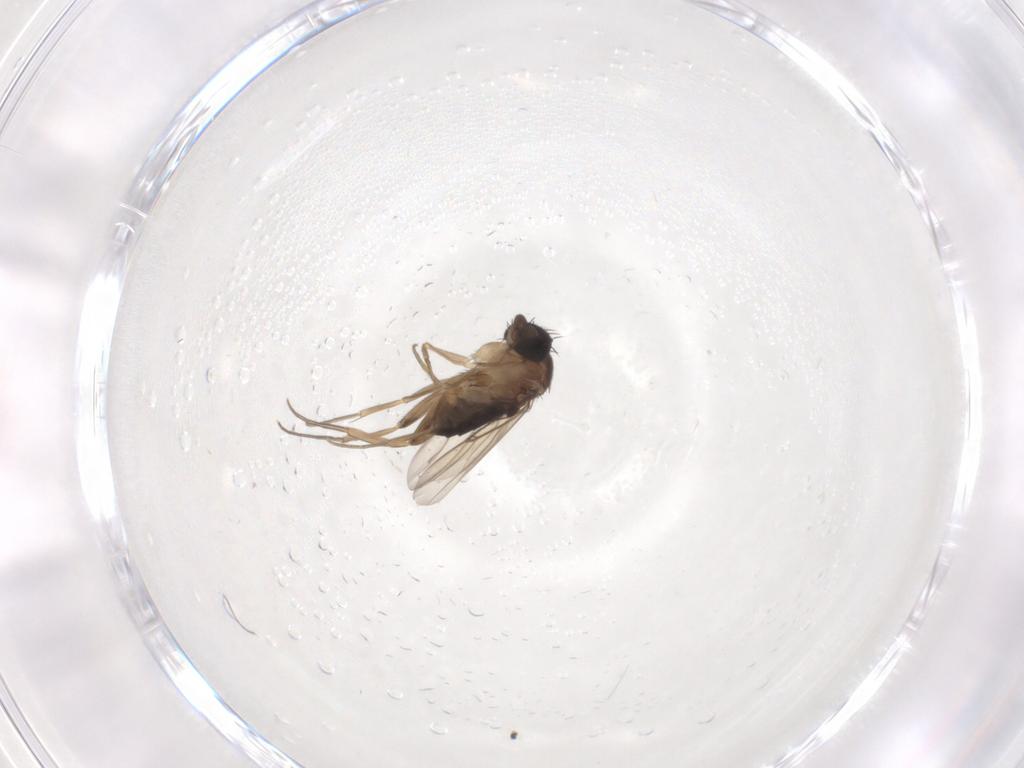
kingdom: Animalia
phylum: Arthropoda
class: Insecta
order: Diptera
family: Phoridae
